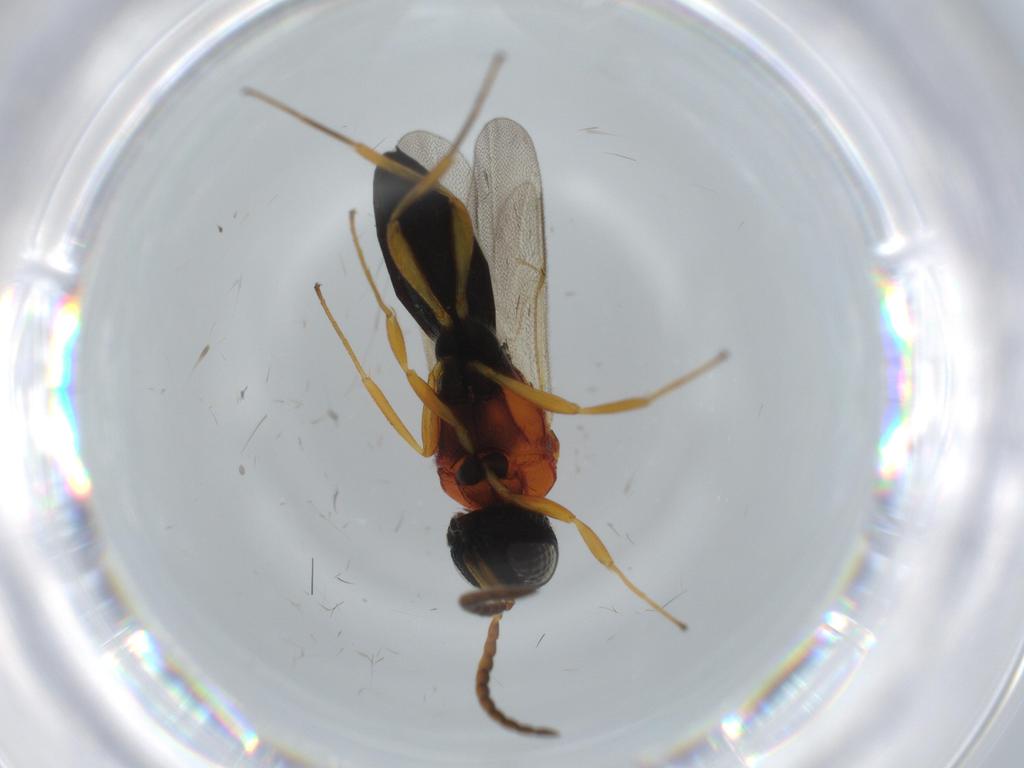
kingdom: Animalia
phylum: Arthropoda
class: Insecta
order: Hymenoptera
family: Scelionidae
